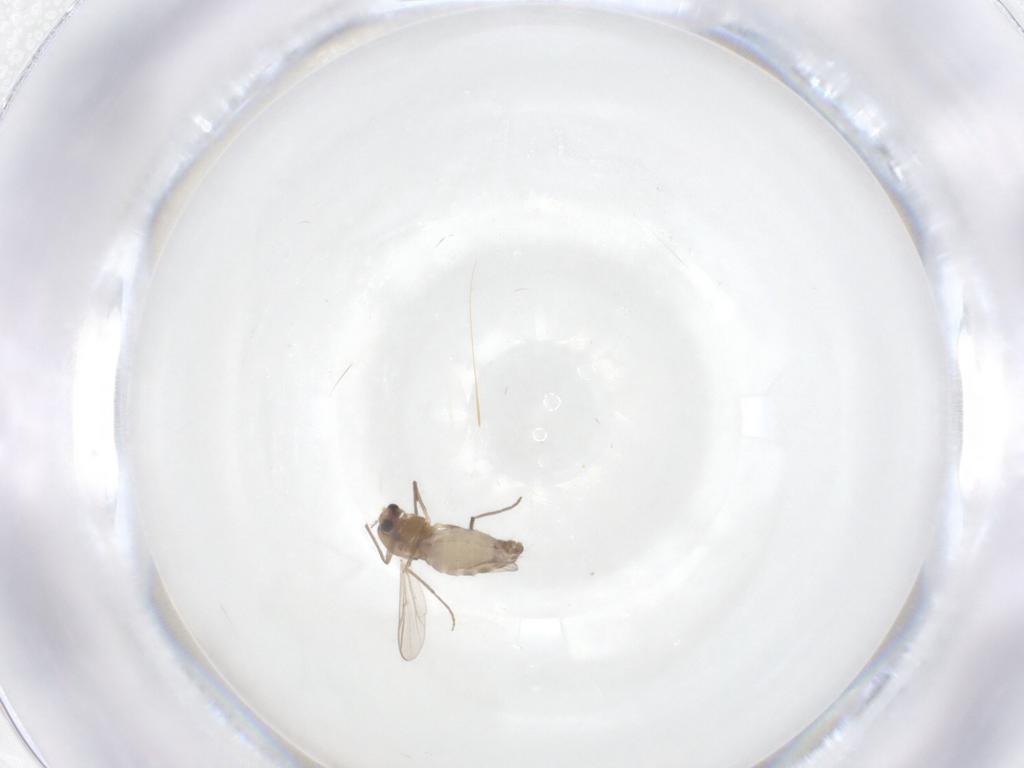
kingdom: Animalia
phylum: Arthropoda
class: Insecta
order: Diptera
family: Chironomidae
